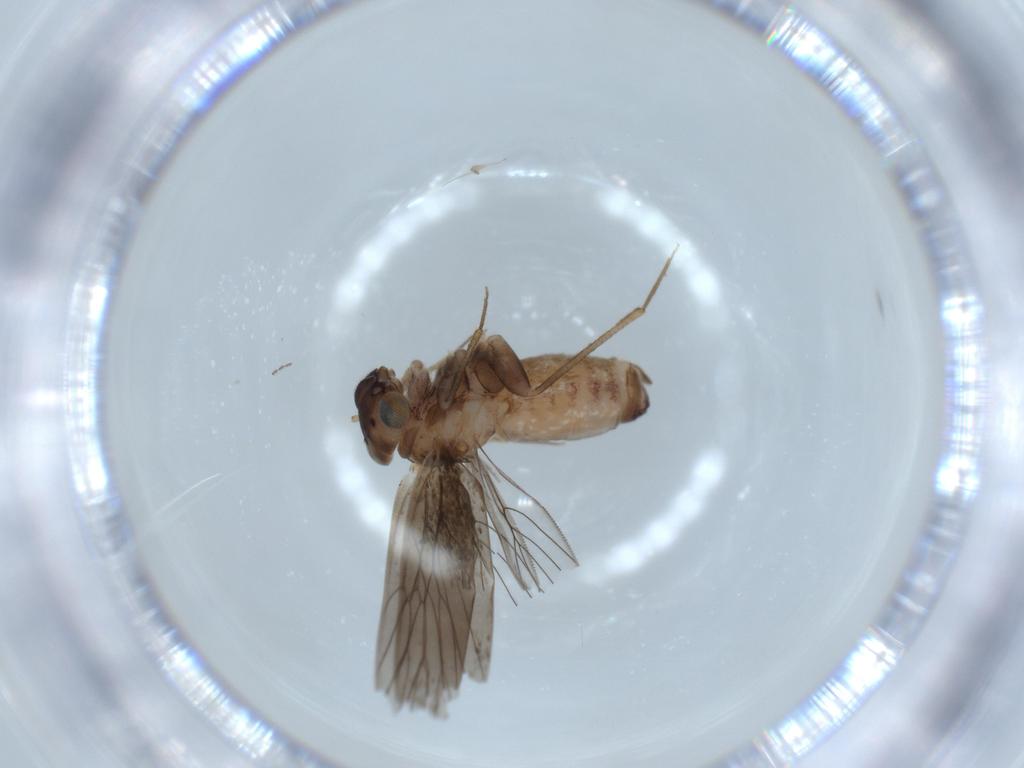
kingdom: Animalia
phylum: Arthropoda
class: Insecta
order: Psocodea
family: Lepidopsocidae
